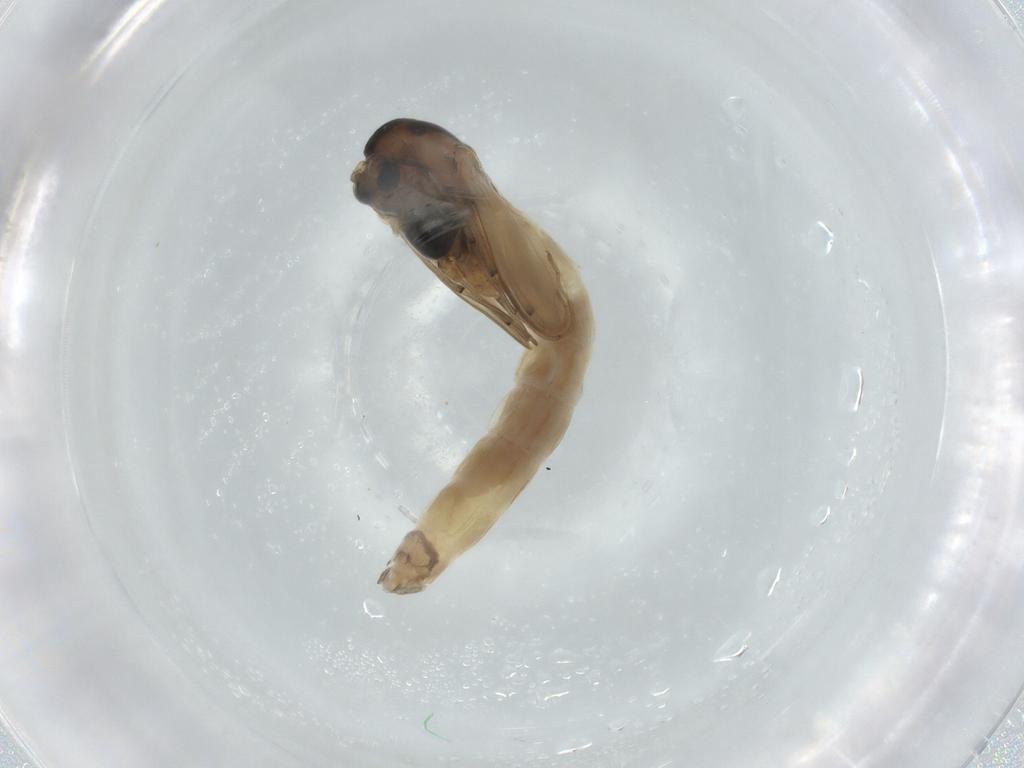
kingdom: Animalia
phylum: Arthropoda
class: Insecta
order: Diptera
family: Chironomidae
